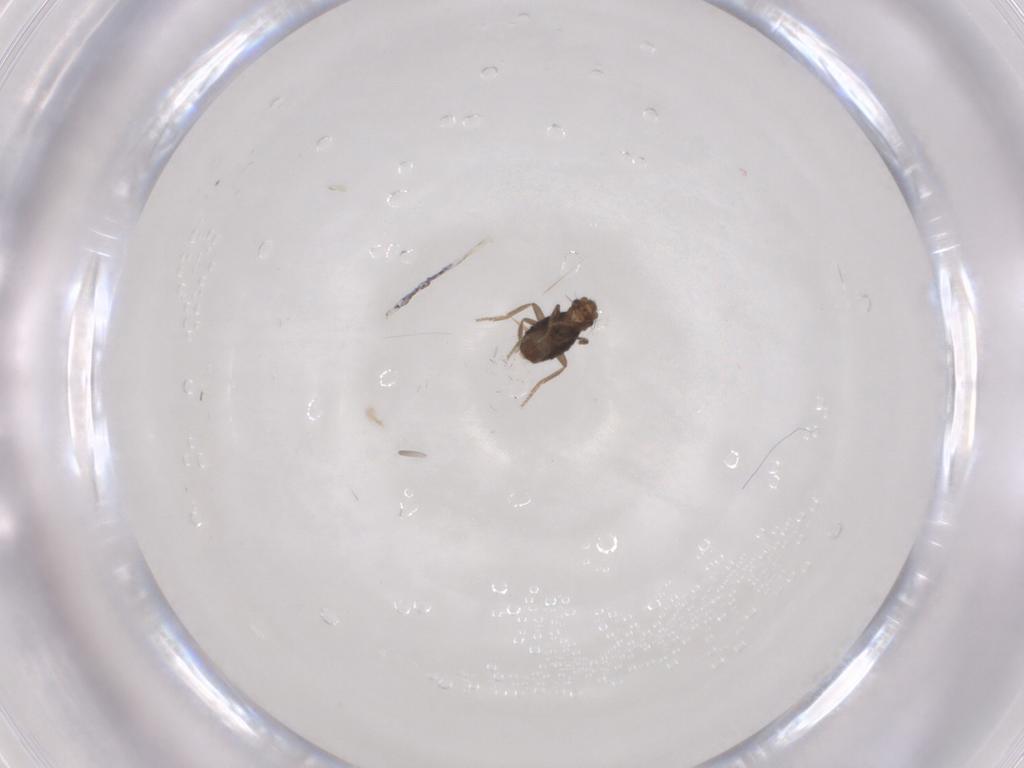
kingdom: Animalia
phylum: Arthropoda
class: Insecta
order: Diptera
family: Phoridae
